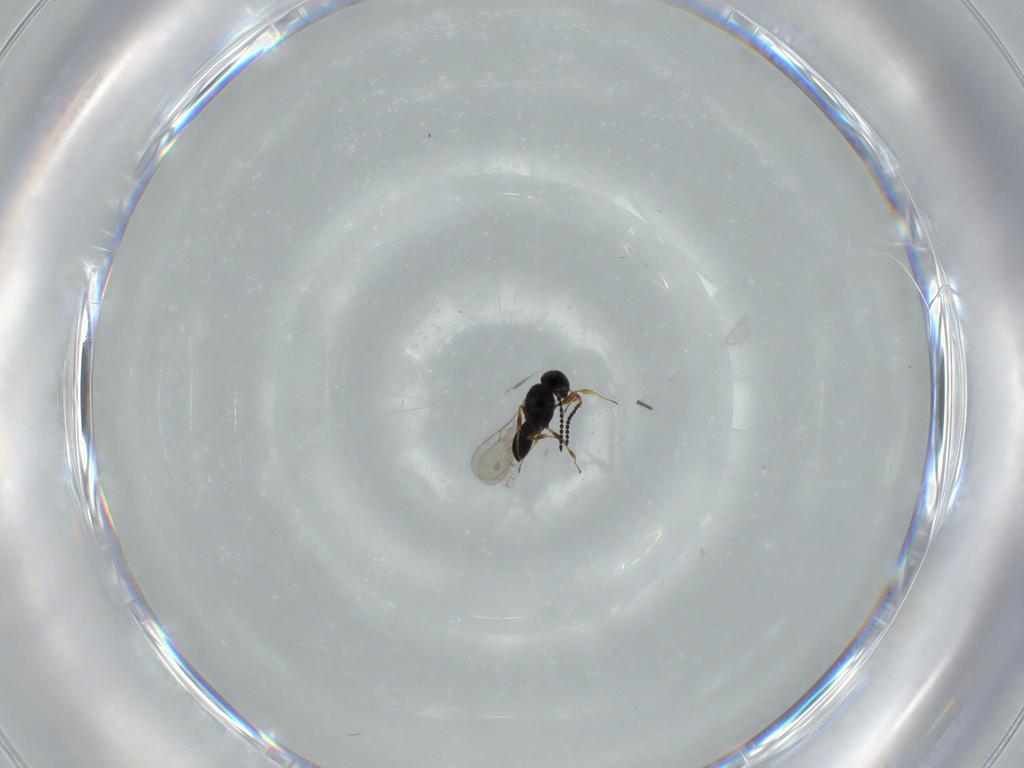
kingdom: Animalia
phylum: Arthropoda
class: Insecta
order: Hymenoptera
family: Scelionidae
